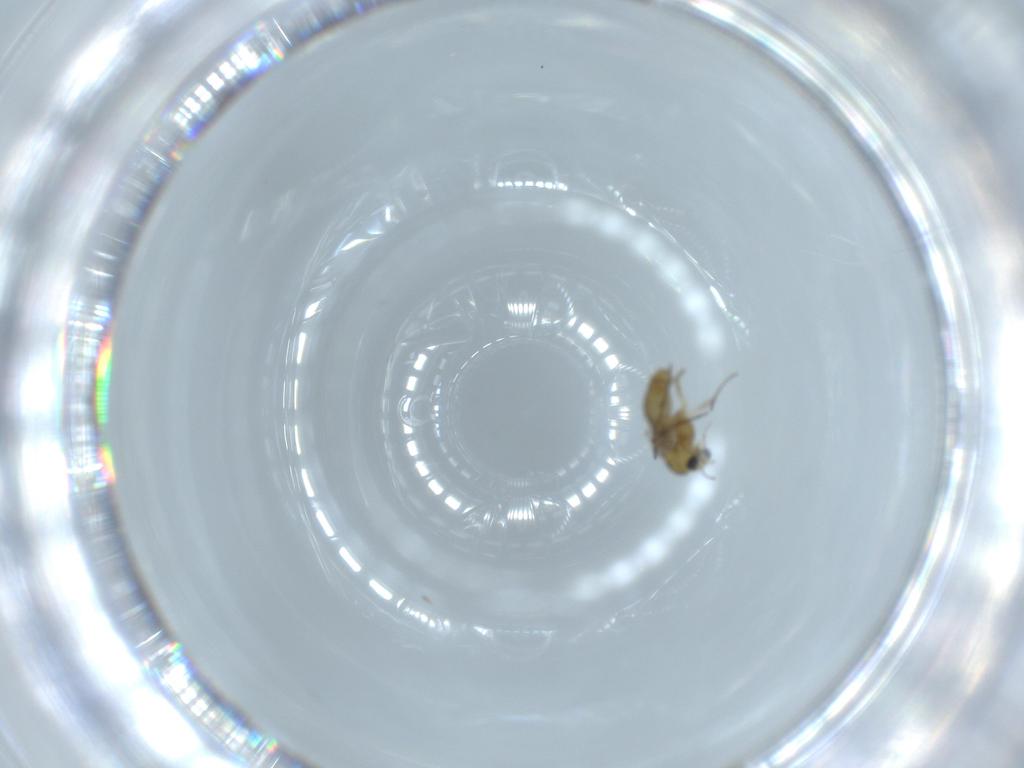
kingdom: Animalia
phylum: Arthropoda
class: Insecta
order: Diptera
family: Chironomidae
